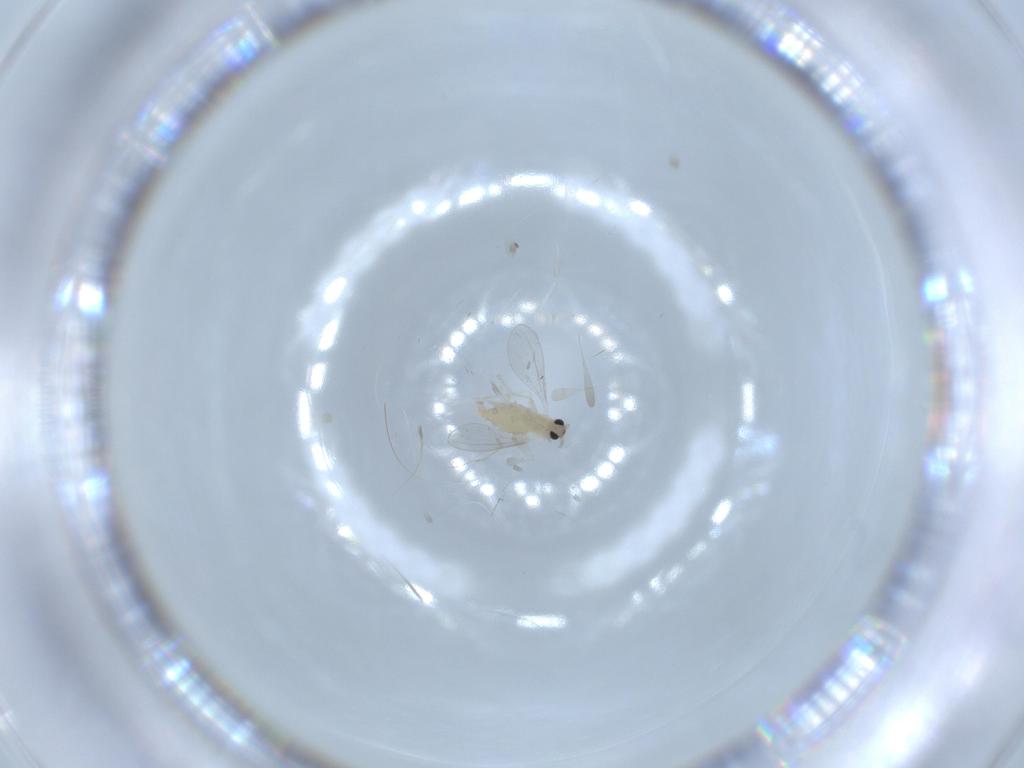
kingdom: Animalia
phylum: Arthropoda
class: Insecta
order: Diptera
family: Cecidomyiidae
